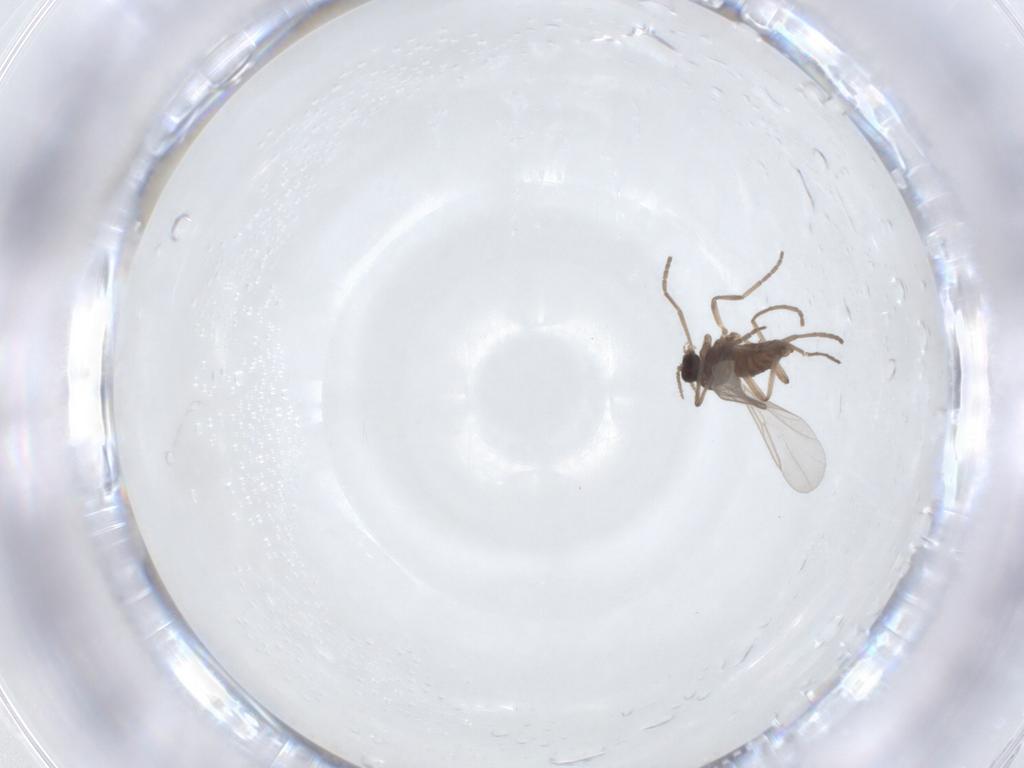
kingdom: Animalia
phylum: Arthropoda
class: Insecta
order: Diptera
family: Cecidomyiidae
